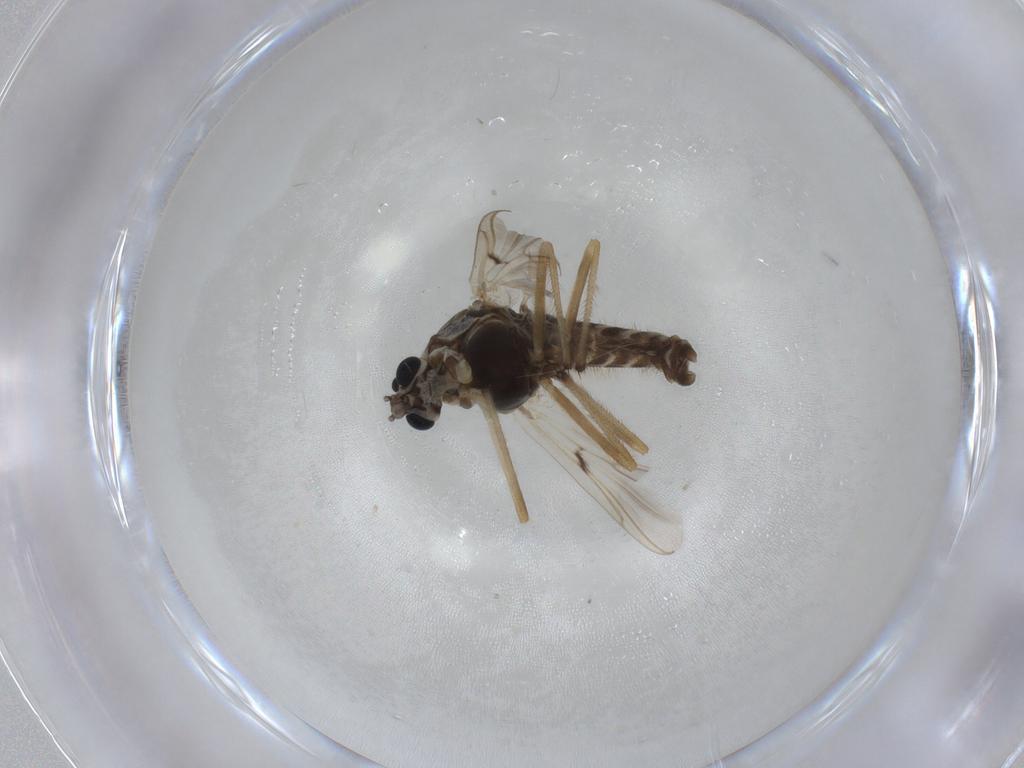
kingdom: Animalia
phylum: Arthropoda
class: Insecta
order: Diptera
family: Chironomidae
